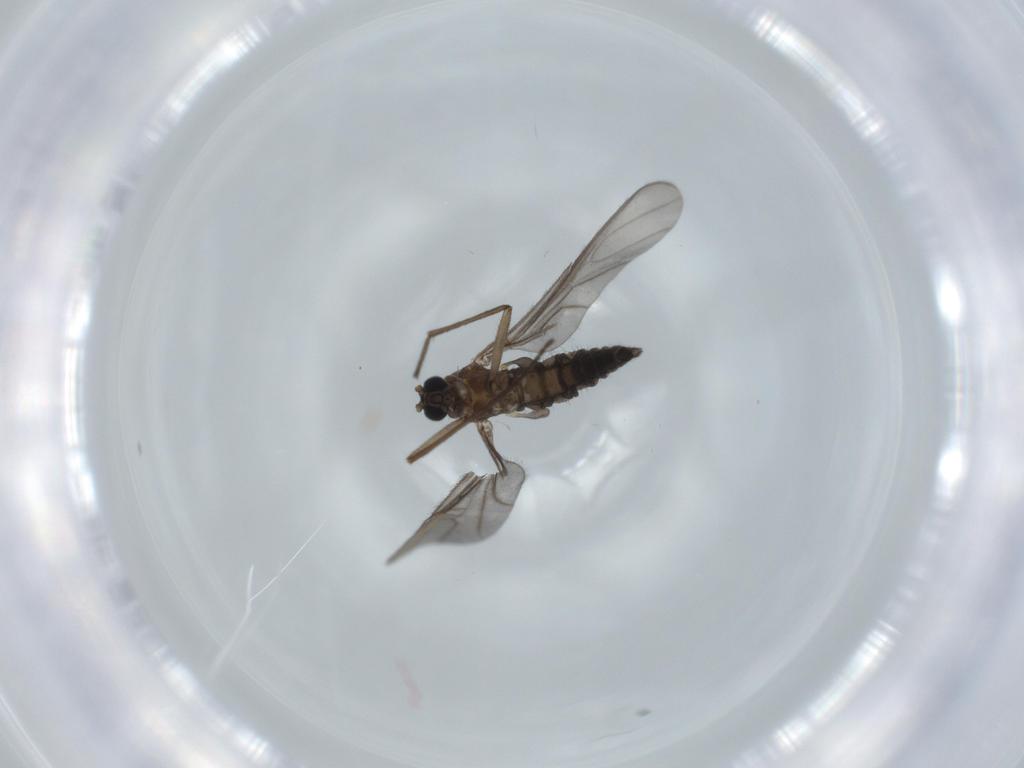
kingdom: Animalia
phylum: Arthropoda
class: Insecta
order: Diptera
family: Sciaridae
